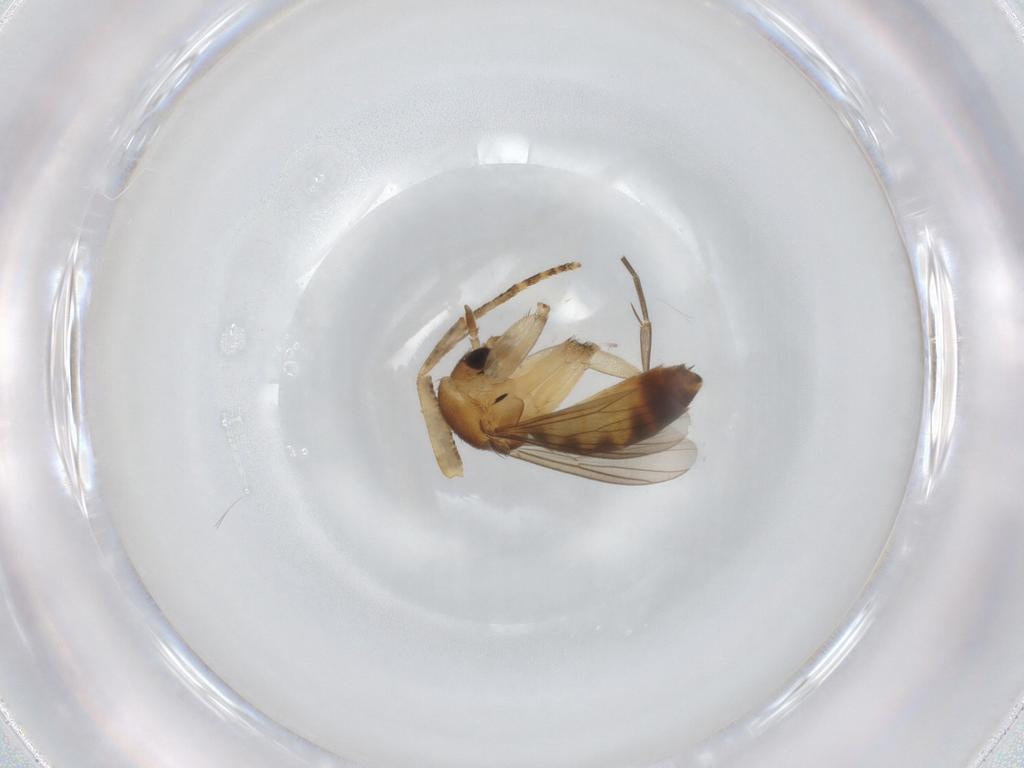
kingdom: Animalia
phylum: Arthropoda
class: Insecta
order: Diptera
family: Mycetophilidae
